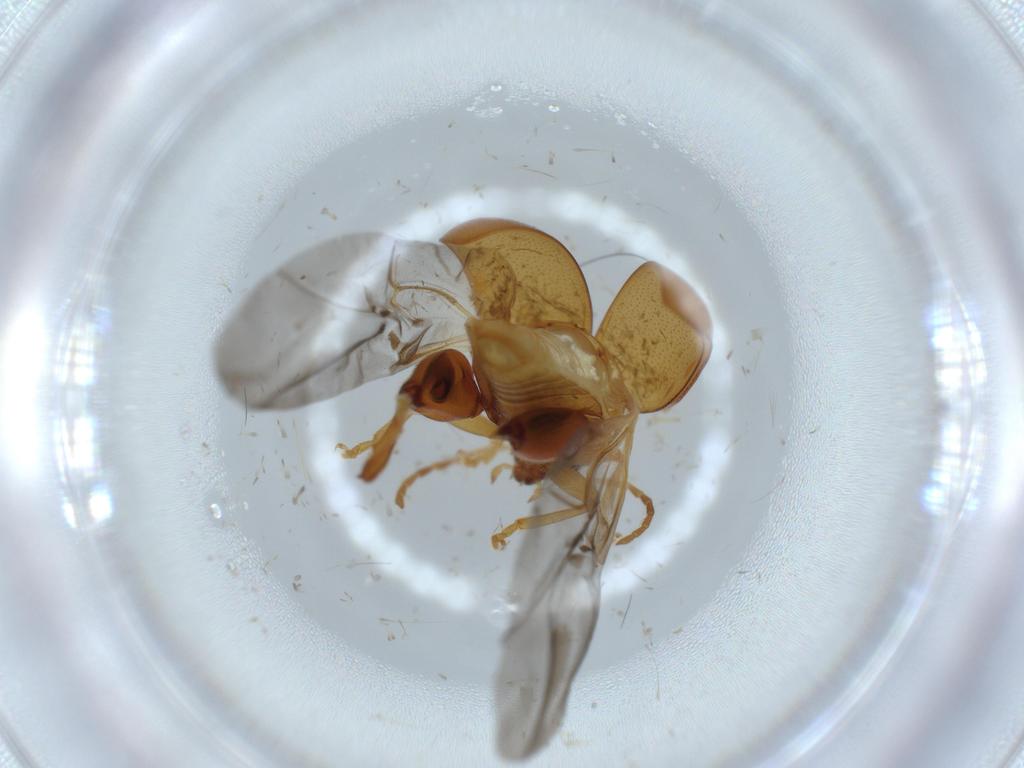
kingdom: Animalia
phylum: Arthropoda
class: Insecta
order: Coleoptera
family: Chrysomelidae
